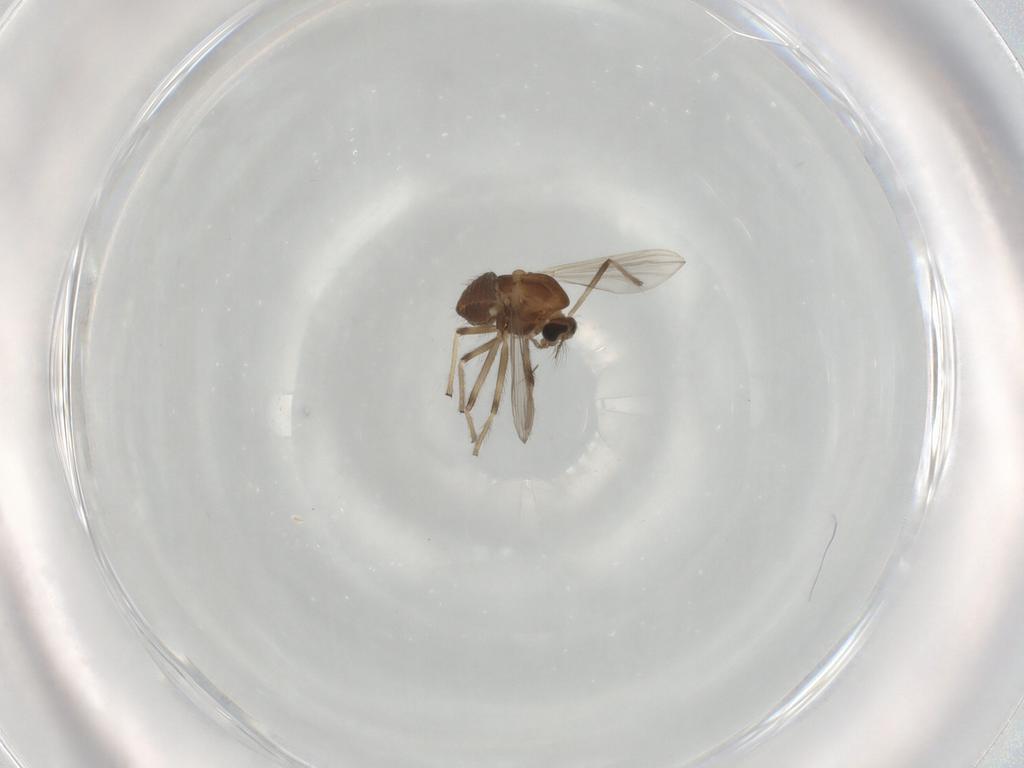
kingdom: Animalia
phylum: Arthropoda
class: Insecta
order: Diptera
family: Chironomidae
